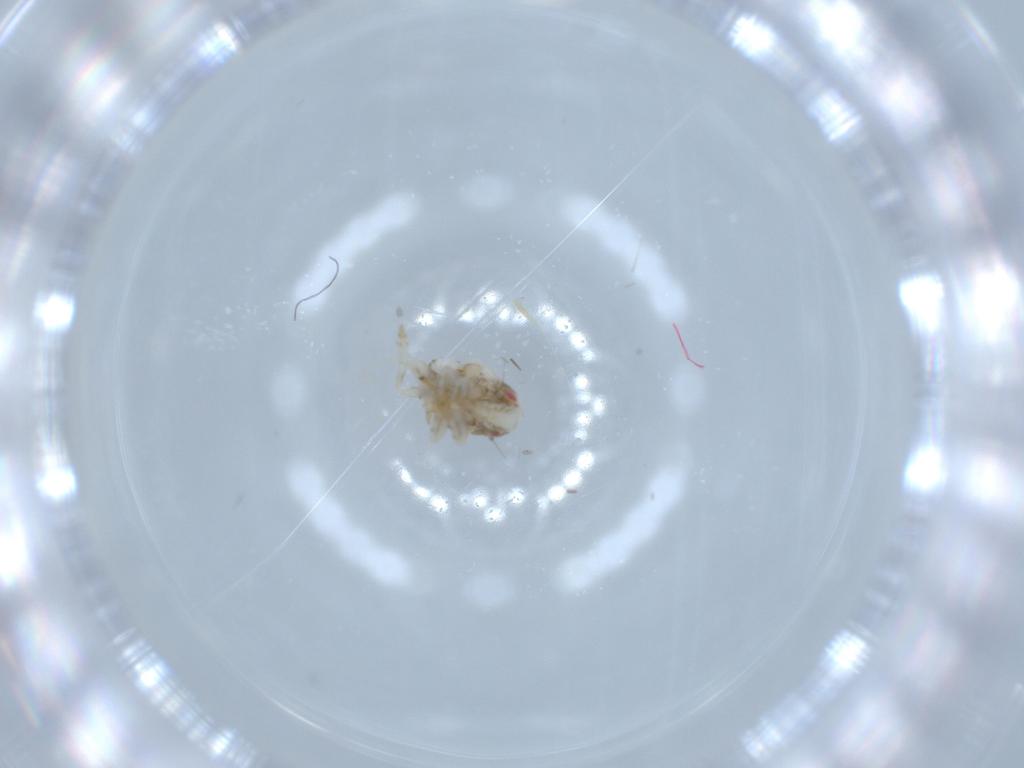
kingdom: Animalia
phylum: Arthropoda
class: Insecta
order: Hemiptera
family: Acanaloniidae
